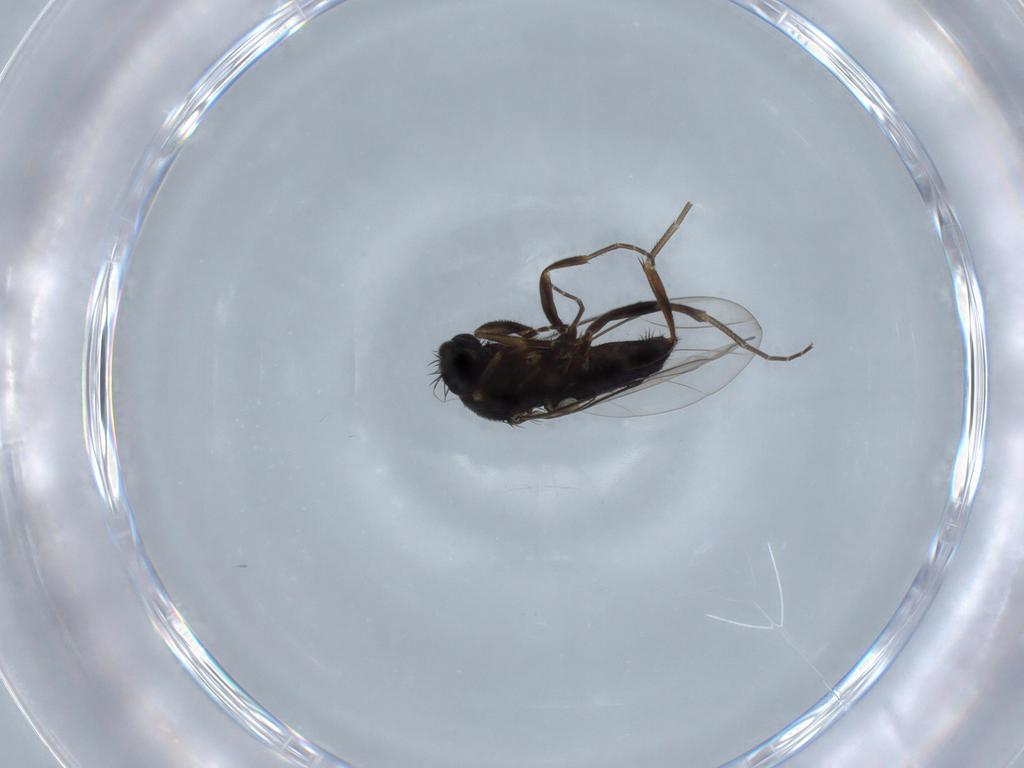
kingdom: Animalia
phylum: Arthropoda
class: Insecta
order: Diptera
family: Phoridae
